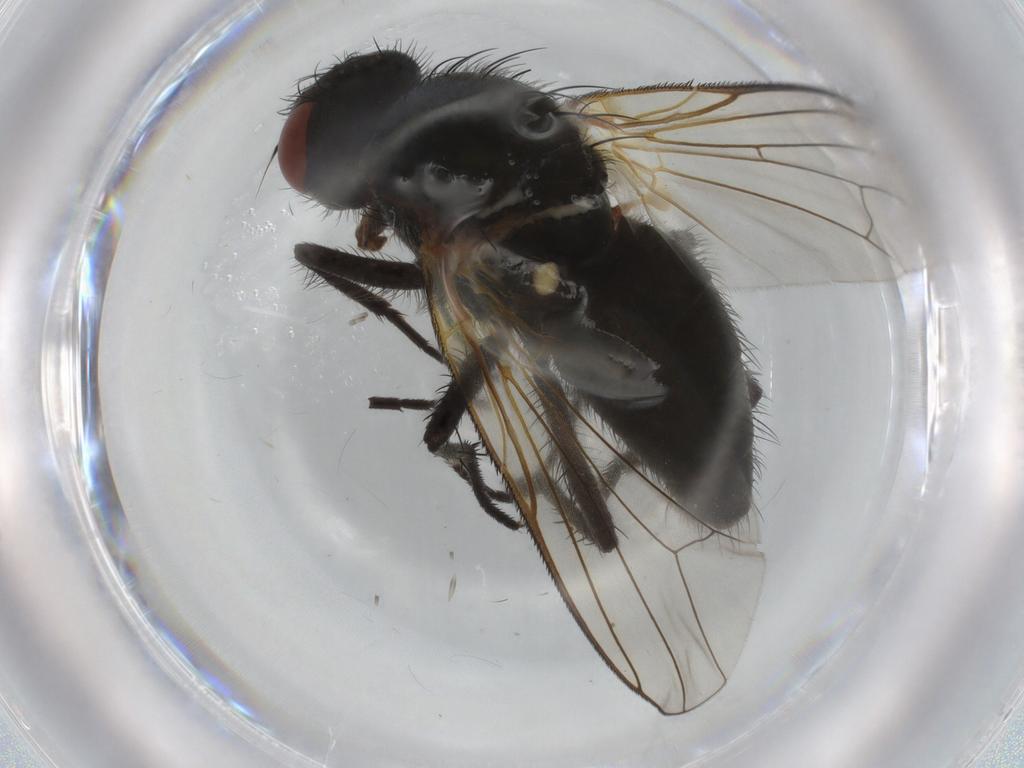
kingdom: Animalia
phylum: Arthropoda
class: Insecta
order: Diptera
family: Anthomyiidae
